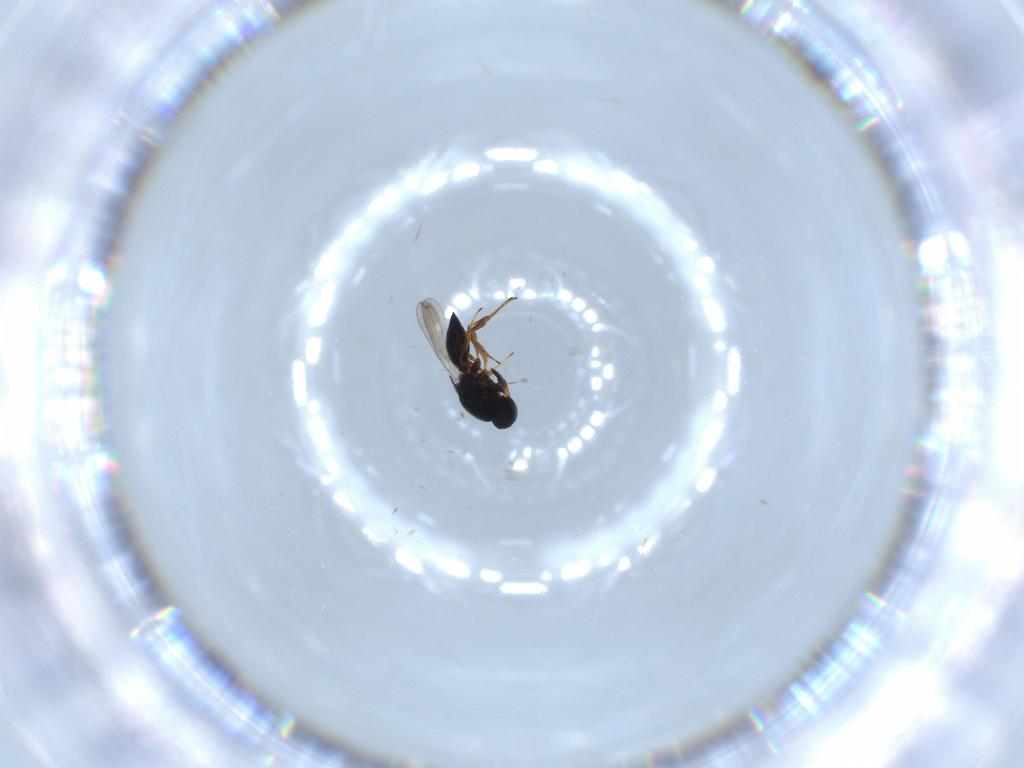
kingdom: Animalia
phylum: Arthropoda
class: Insecta
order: Hymenoptera
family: Platygastridae
